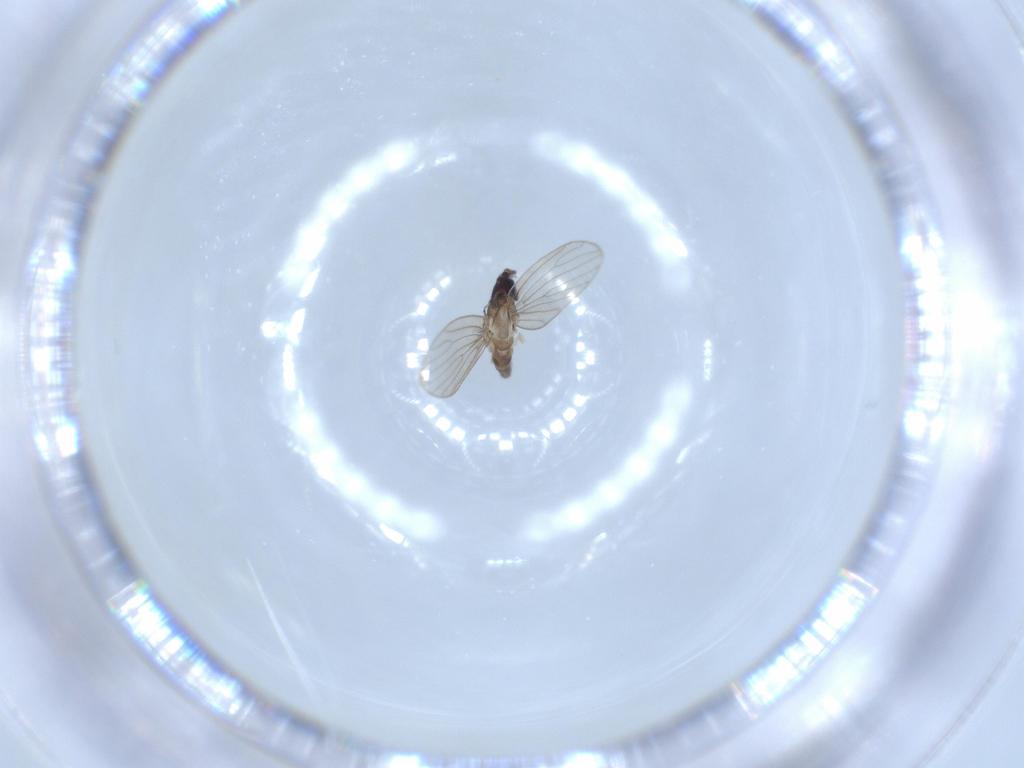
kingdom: Animalia
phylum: Arthropoda
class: Insecta
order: Diptera
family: Cecidomyiidae
